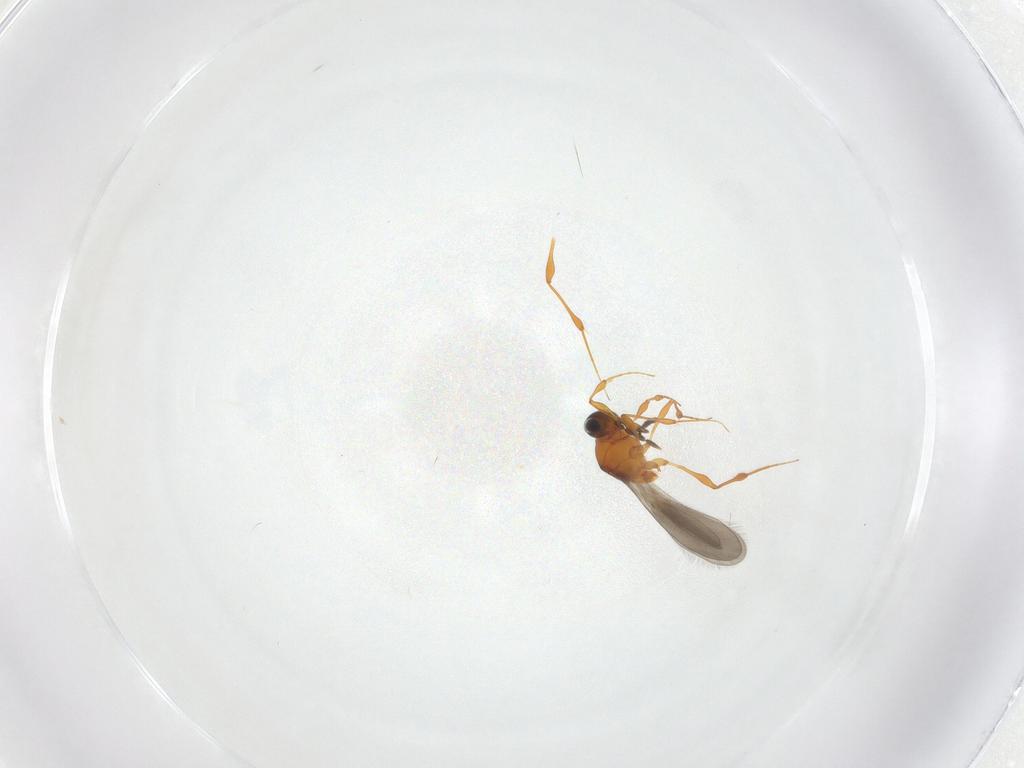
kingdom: Animalia
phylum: Arthropoda
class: Insecta
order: Hymenoptera
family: Platygastridae
